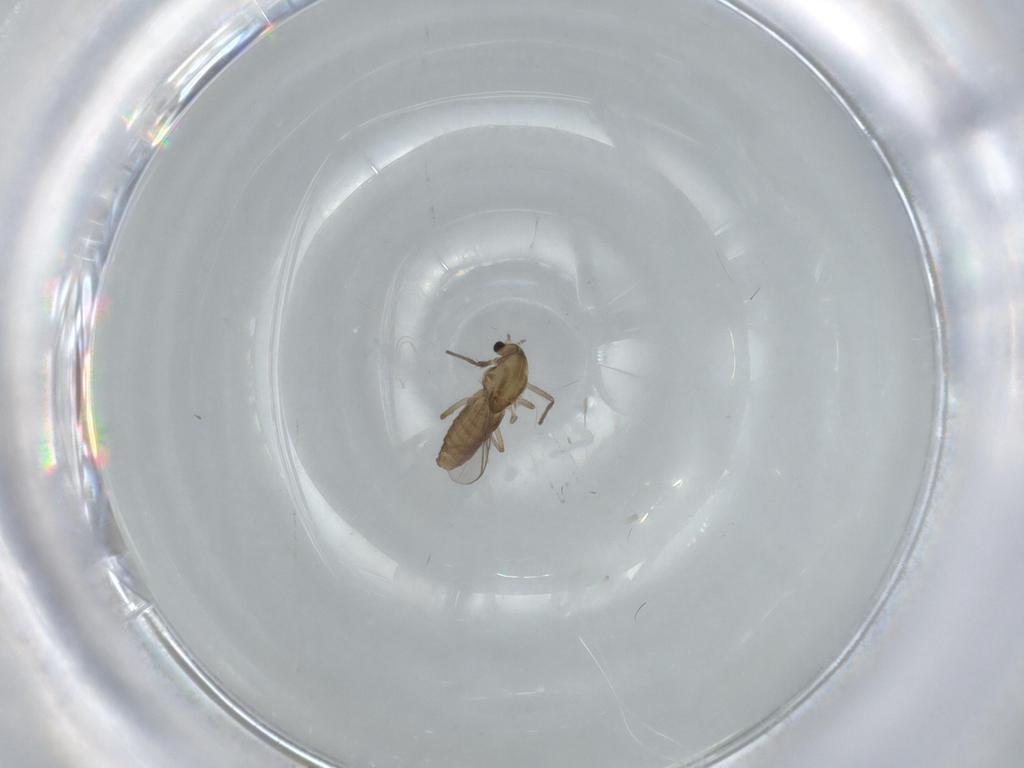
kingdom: Animalia
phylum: Arthropoda
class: Insecta
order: Diptera
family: Chironomidae
